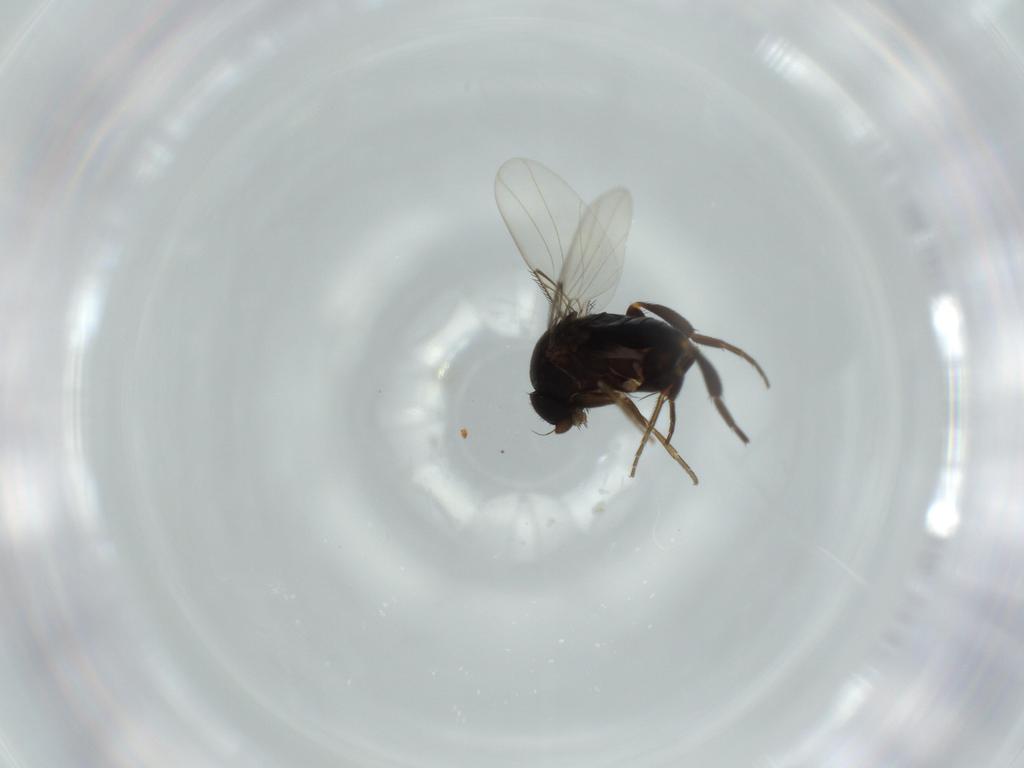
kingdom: Animalia
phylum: Arthropoda
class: Insecta
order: Diptera
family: Phoridae
